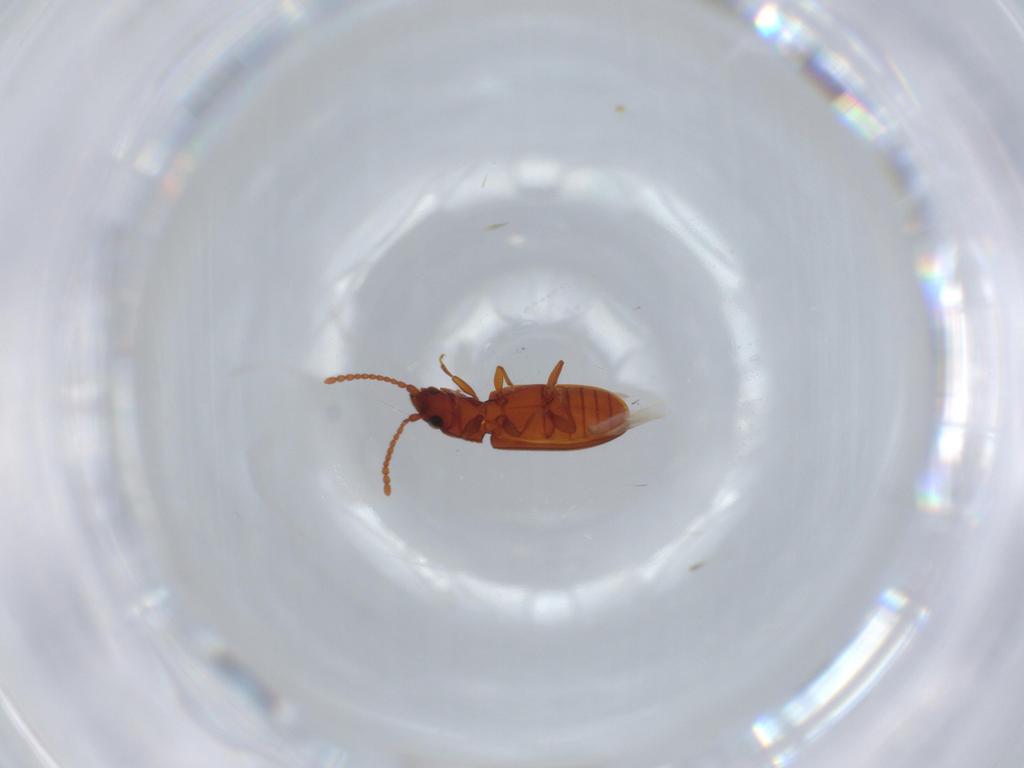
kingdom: Animalia
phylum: Arthropoda
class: Insecta
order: Coleoptera
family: Laemophloeidae
